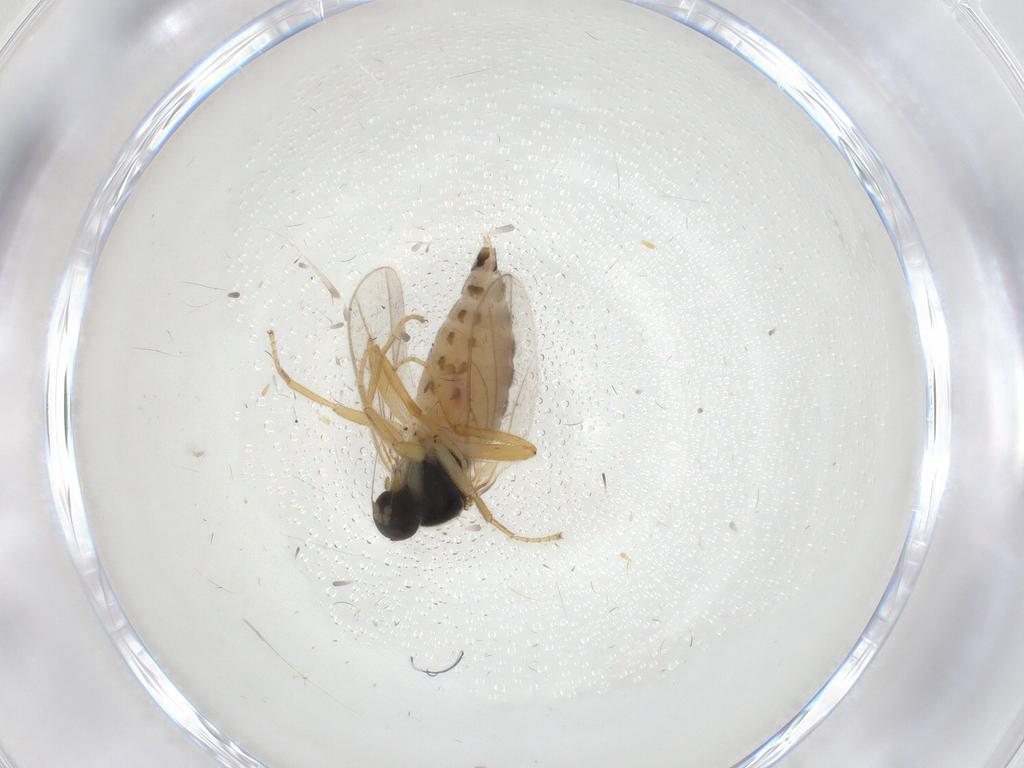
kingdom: Animalia
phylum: Arthropoda
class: Insecta
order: Diptera
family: Hybotidae
